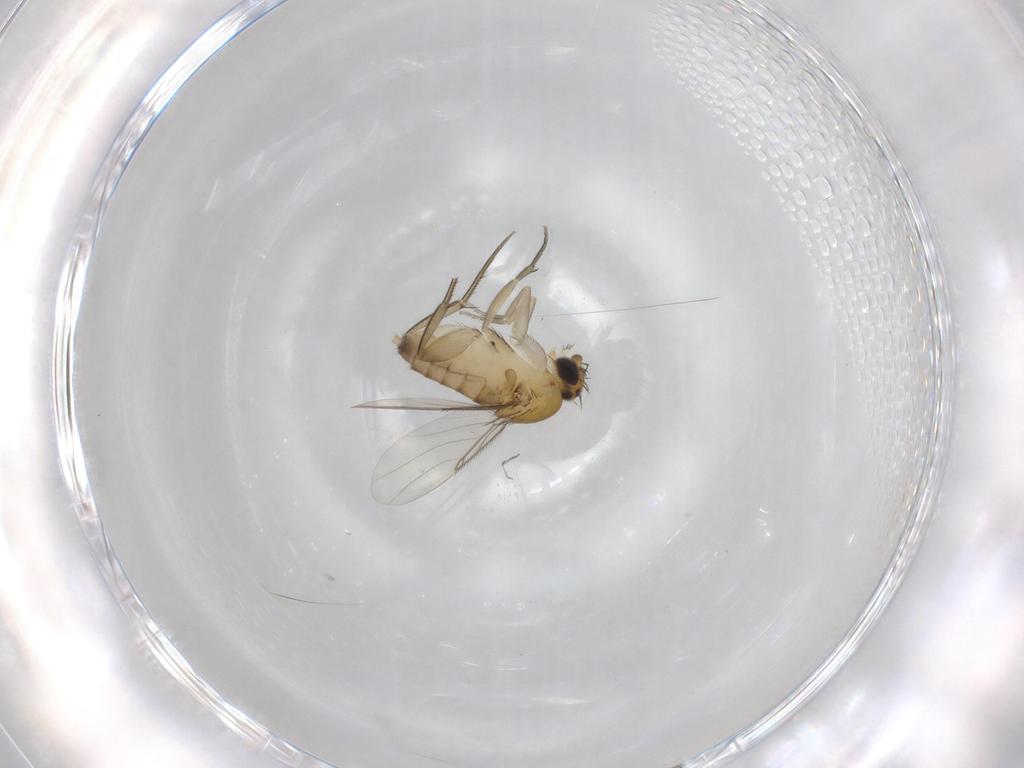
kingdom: Animalia
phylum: Arthropoda
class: Insecta
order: Diptera
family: Phoridae
